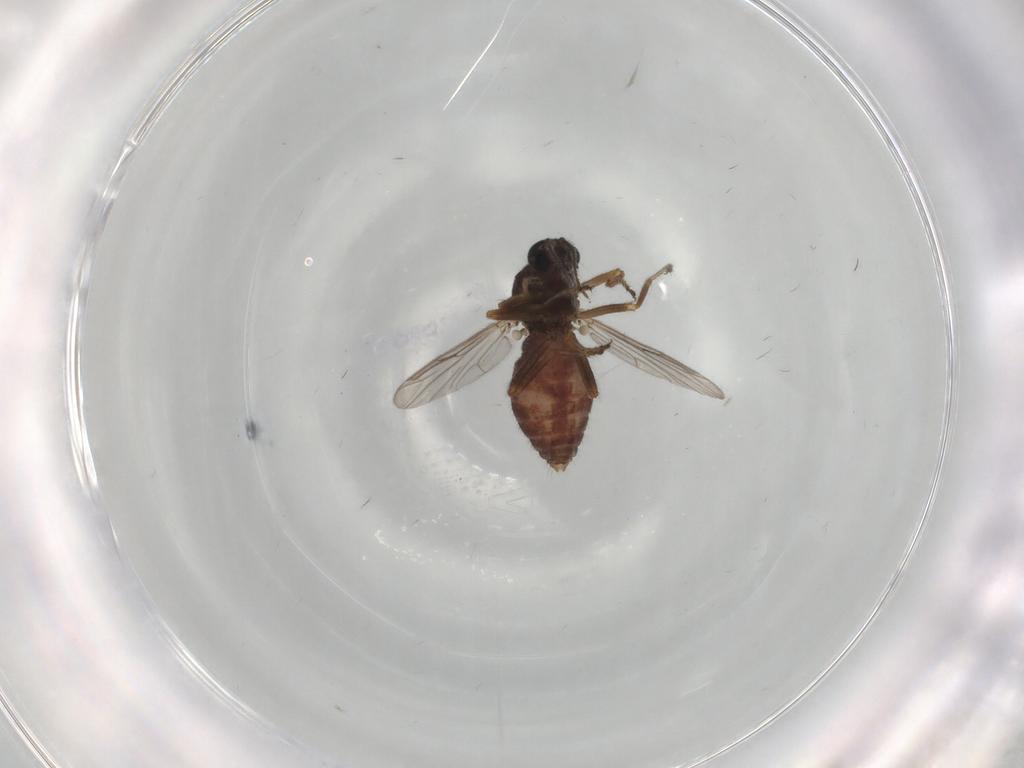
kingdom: Animalia
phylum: Arthropoda
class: Insecta
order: Diptera
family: Ceratopogonidae
